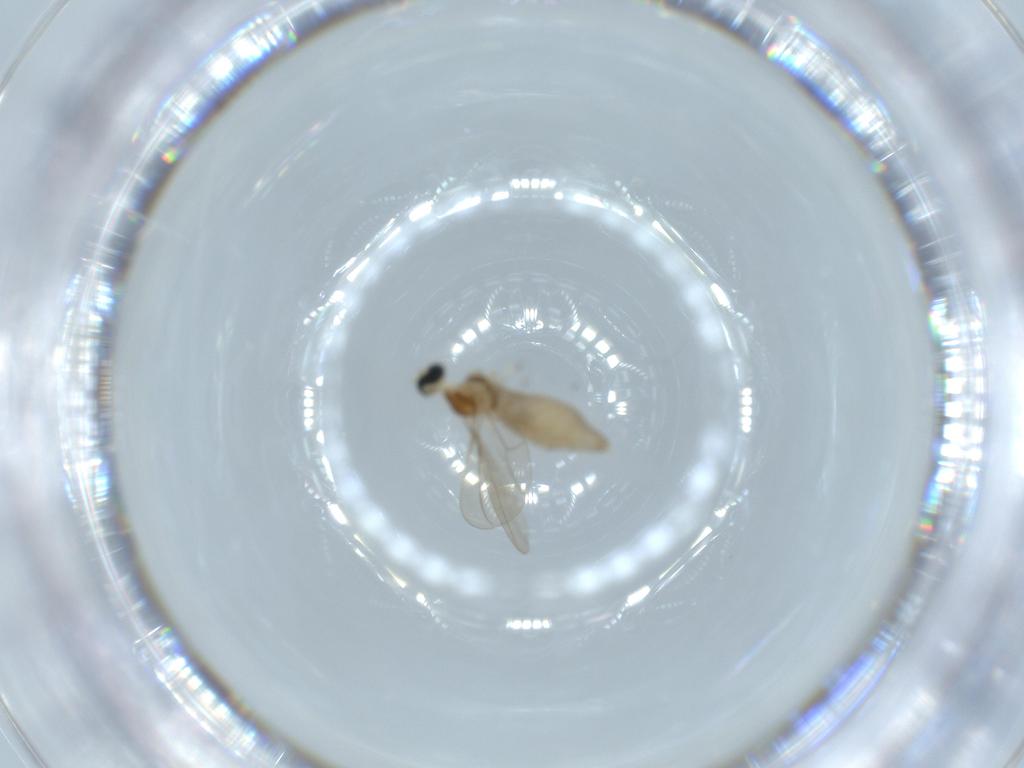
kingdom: Animalia
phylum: Arthropoda
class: Insecta
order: Diptera
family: Cecidomyiidae
